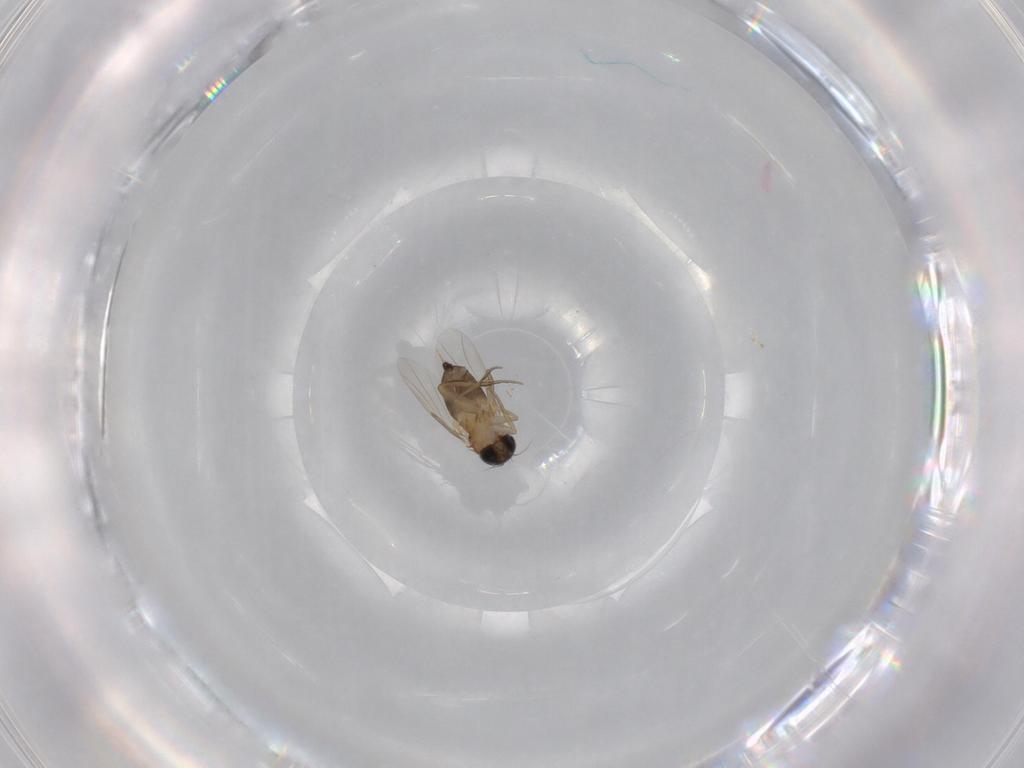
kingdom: Animalia
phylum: Arthropoda
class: Insecta
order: Diptera
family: Phoridae
